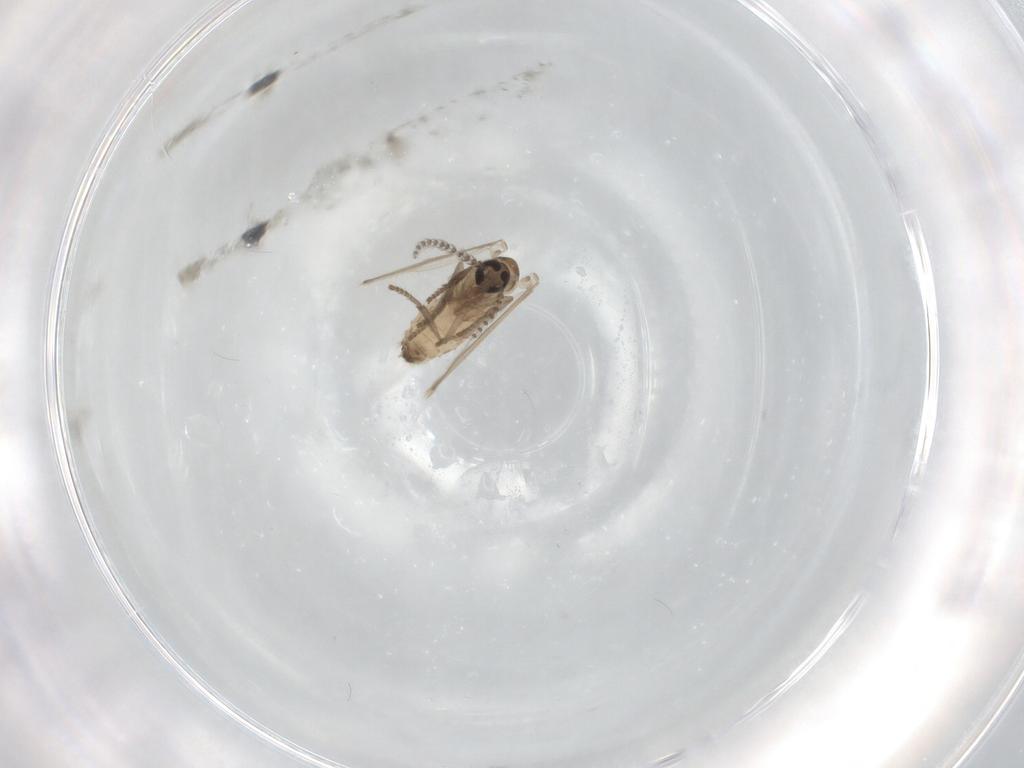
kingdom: Animalia
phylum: Arthropoda
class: Insecta
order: Diptera
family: Psychodidae
